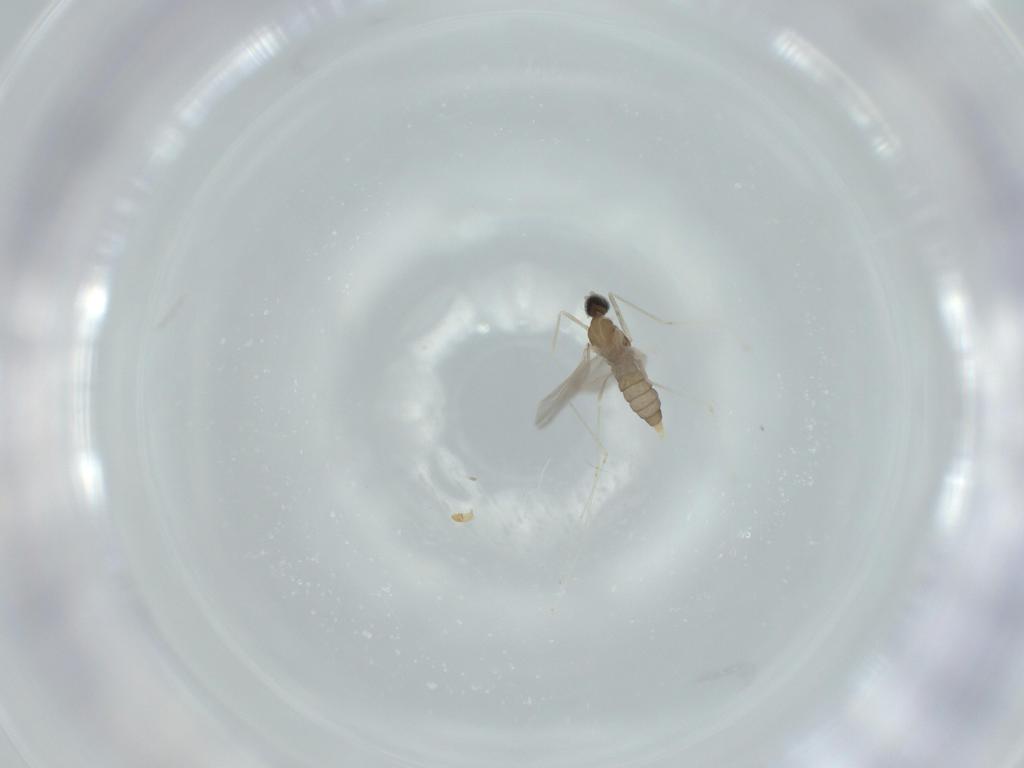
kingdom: Animalia
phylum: Arthropoda
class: Insecta
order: Diptera
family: Cecidomyiidae
